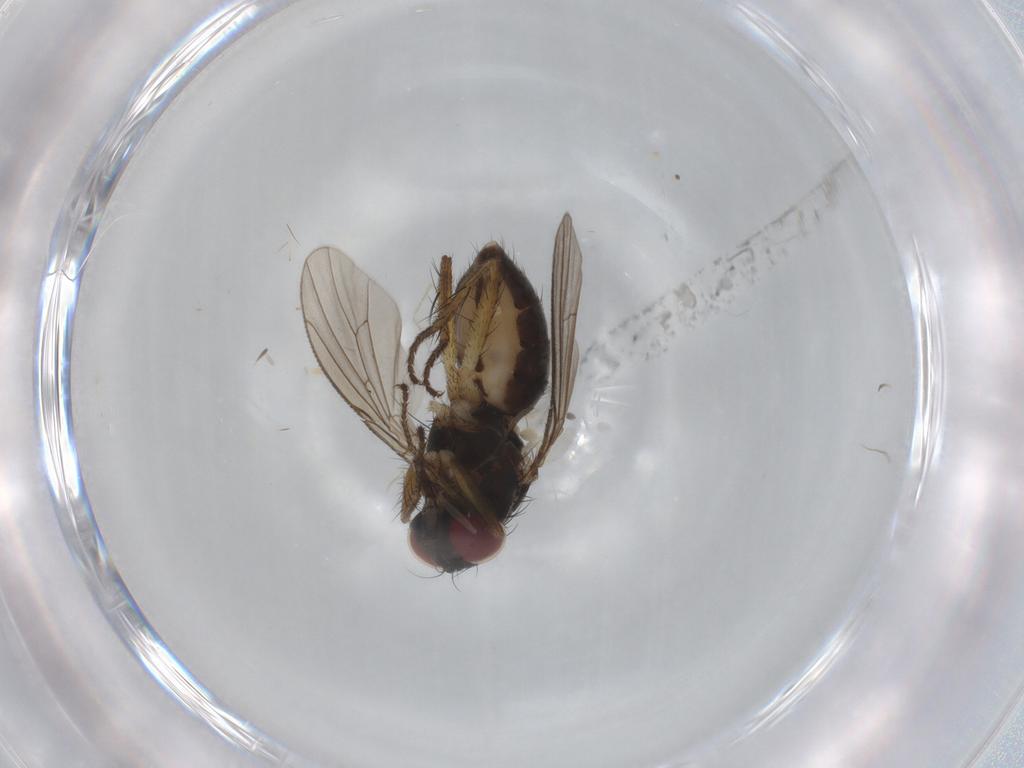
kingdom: Animalia
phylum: Arthropoda
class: Insecta
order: Diptera
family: Muscidae
